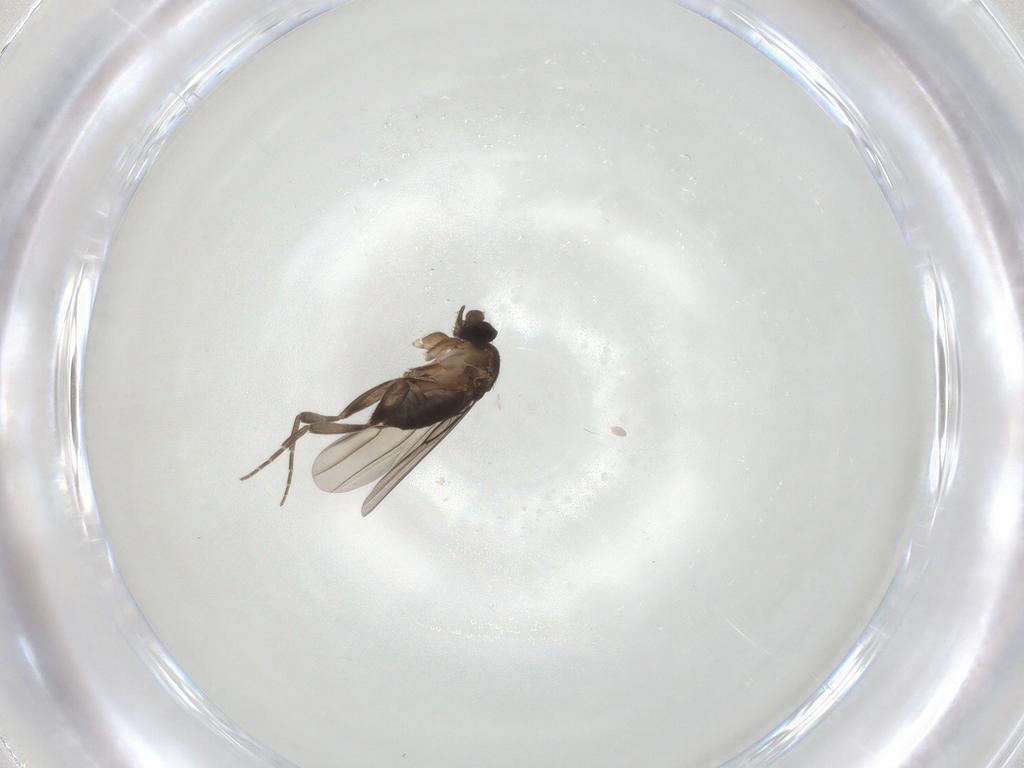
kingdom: Animalia
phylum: Arthropoda
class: Insecta
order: Diptera
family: Phoridae
